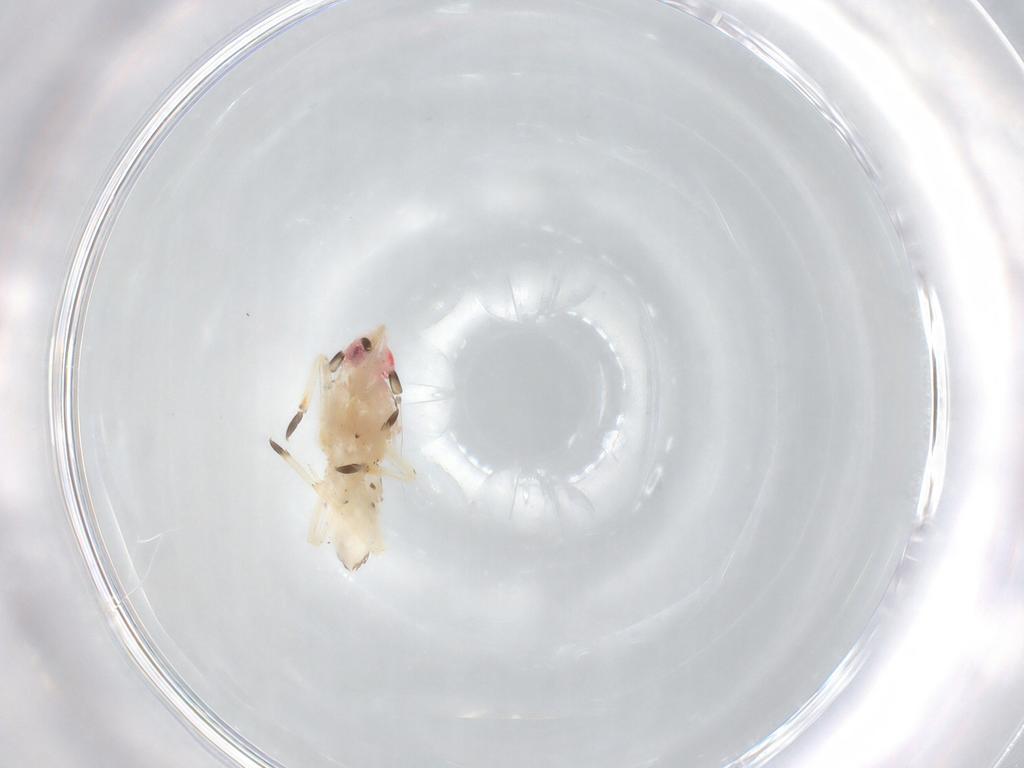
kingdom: Animalia
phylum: Arthropoda
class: Insecta
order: Hemiptera
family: Delphacidae
